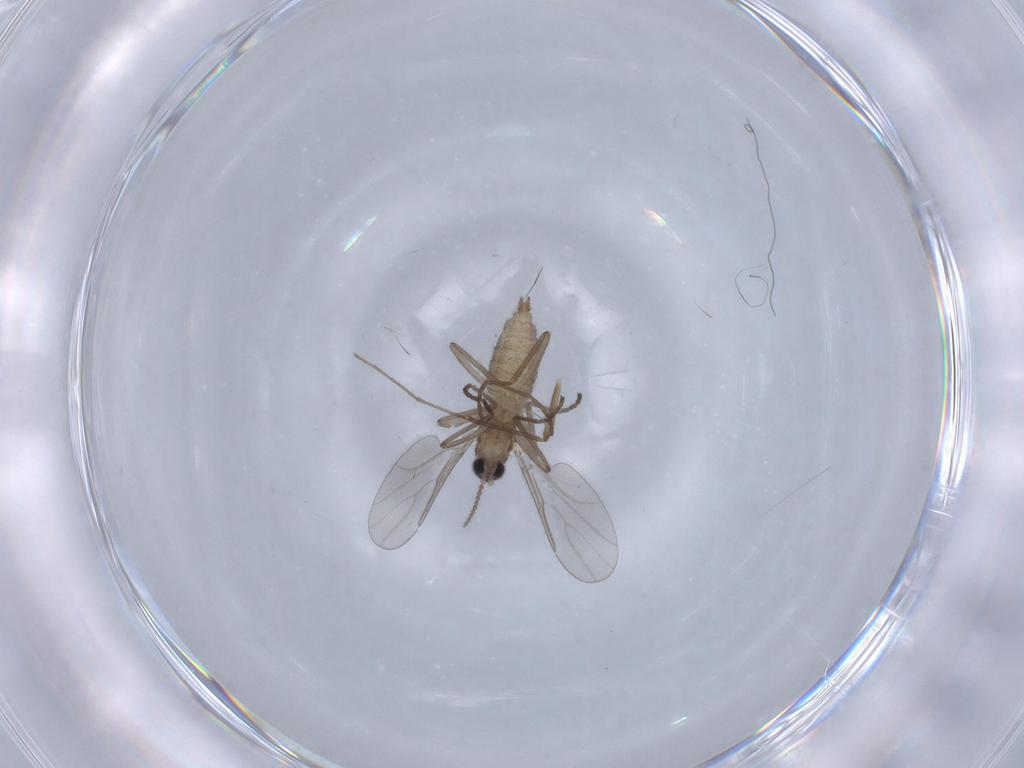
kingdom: Animalia
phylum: Arthropoda
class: Insecta
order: Diptera
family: Chironomidae
